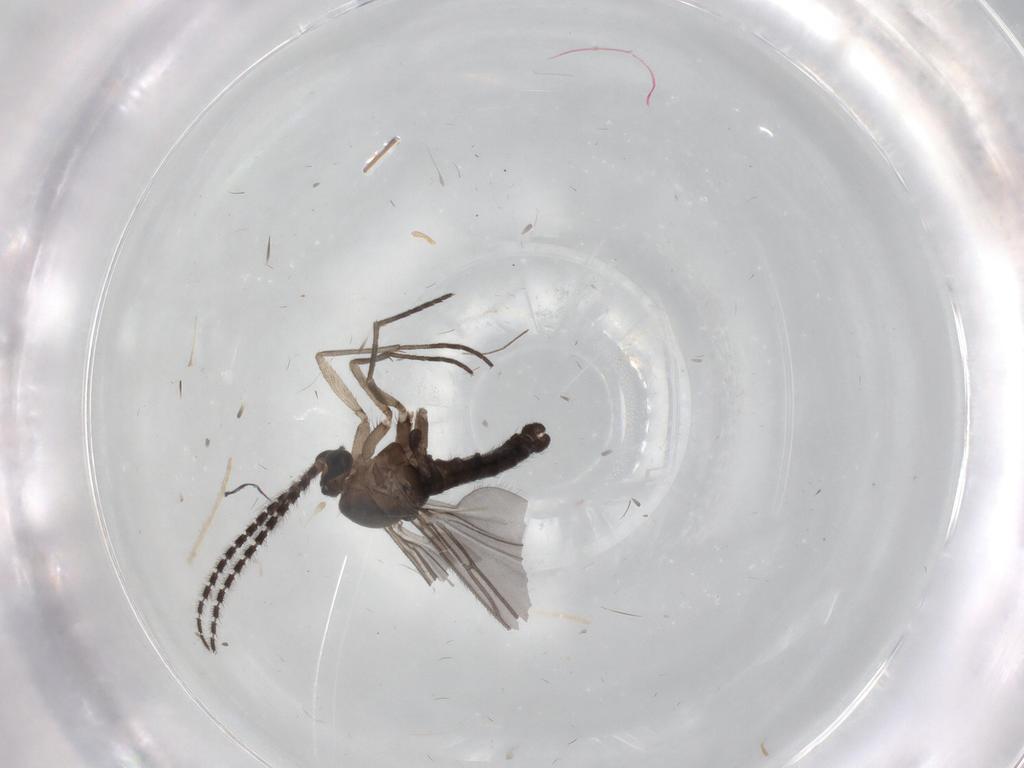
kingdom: Animalia
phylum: Arthropoda
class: Insecta
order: Diptera
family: Sciaridae
